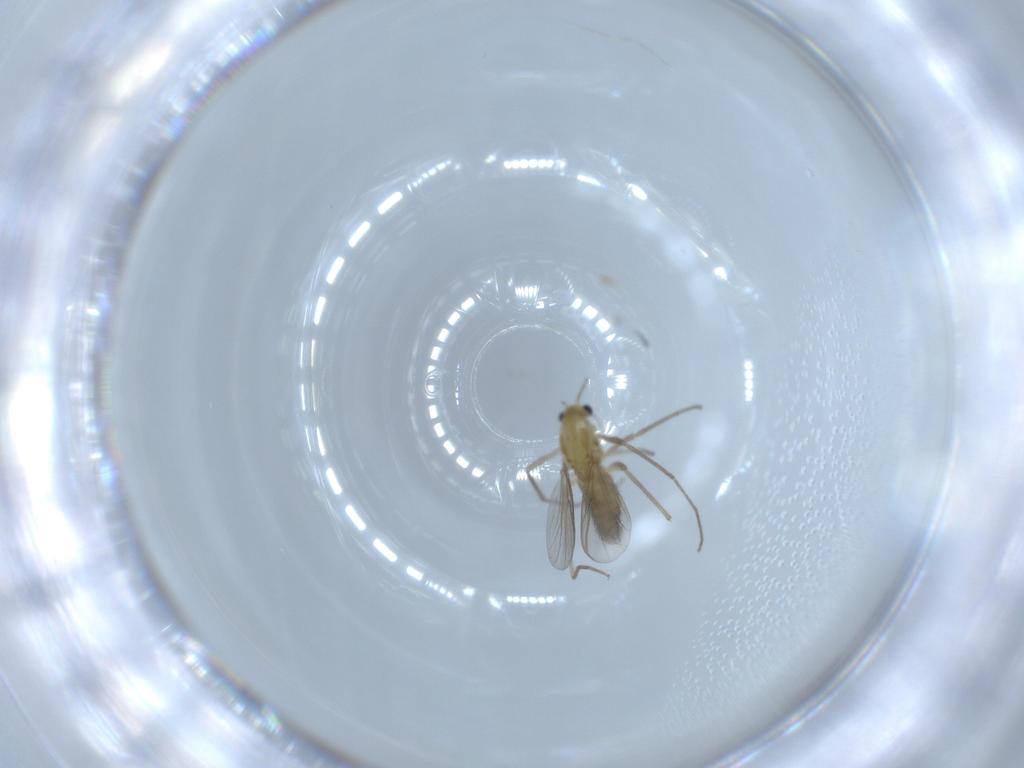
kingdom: Animalia
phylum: Arthropoda
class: Insecta
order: Diptera
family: Chironomidae
